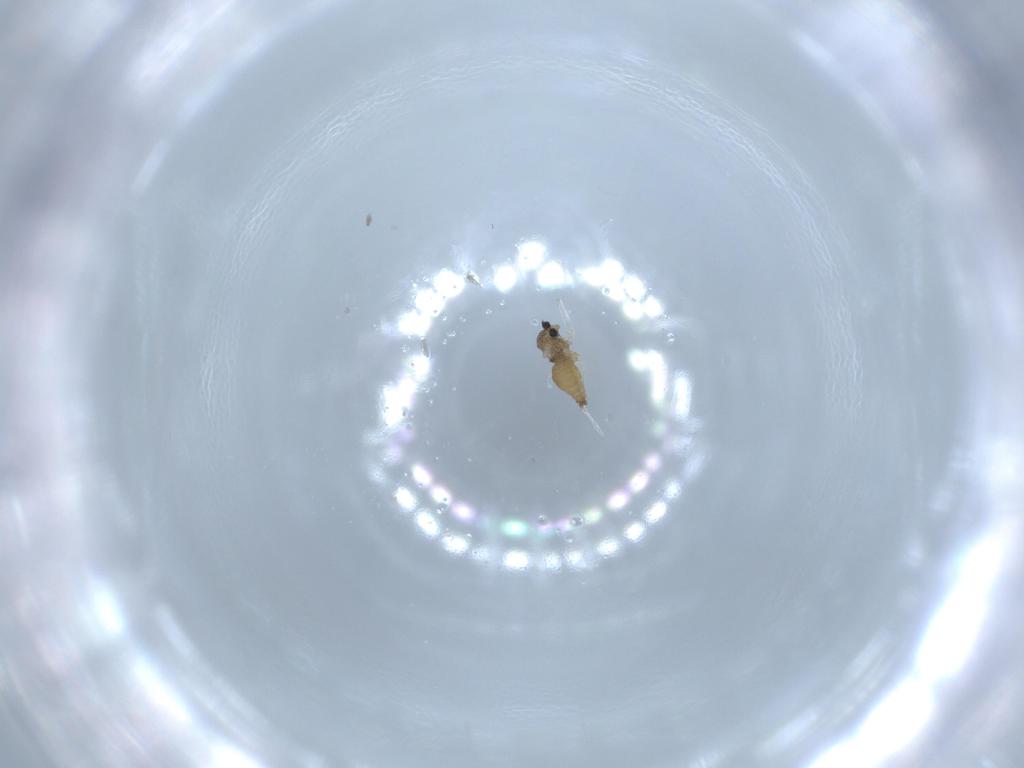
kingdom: Animalia
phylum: Arthropoda
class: Insecta
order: Diptera
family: Cecidomyiidae
